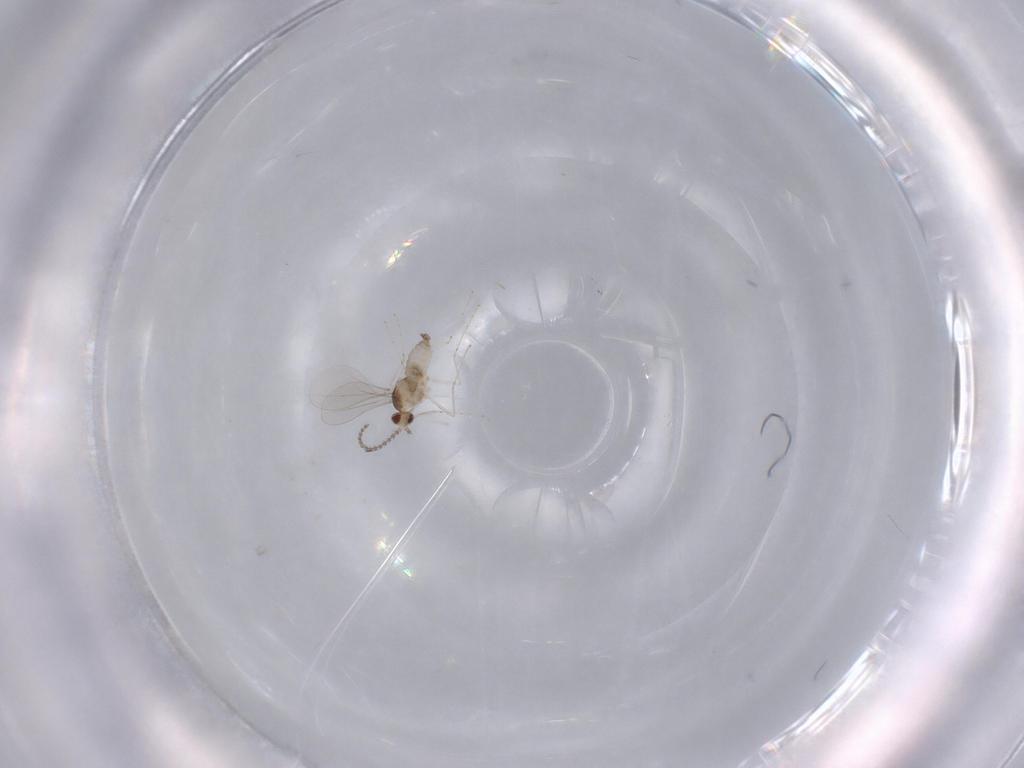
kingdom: Animalia
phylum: Arthropoda
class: Insecta
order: Diptera
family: Cecidomyiidae
